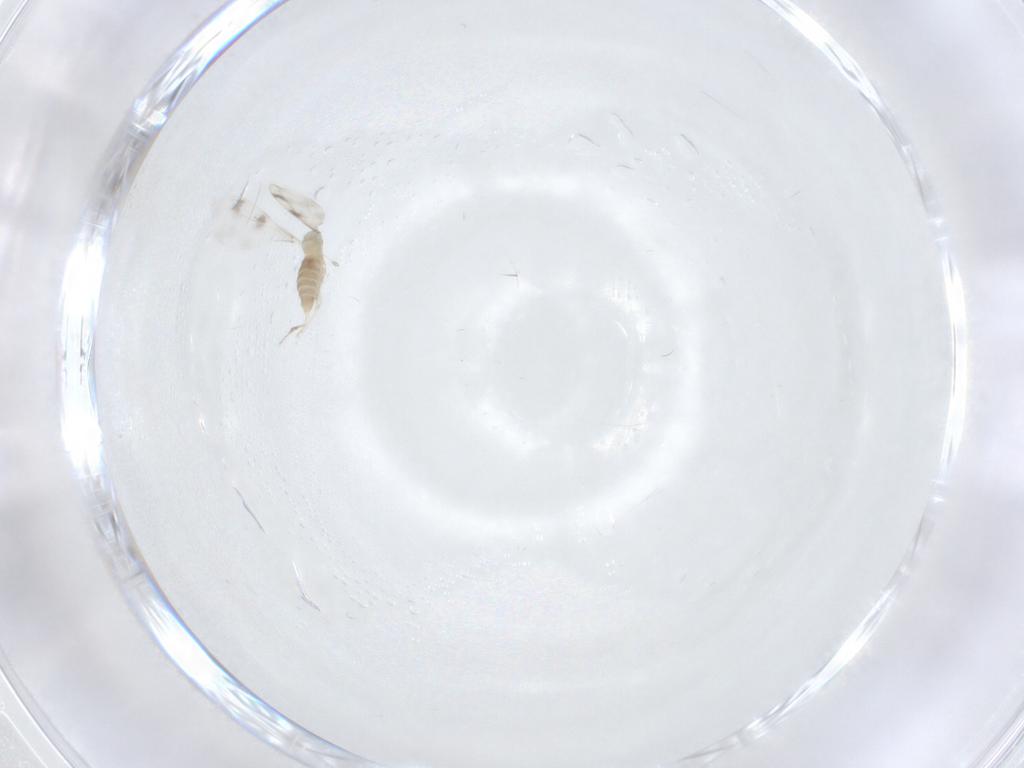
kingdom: Animalia
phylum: Arthropoda
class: Insecta
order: Diptera
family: Cecidomyiidae
